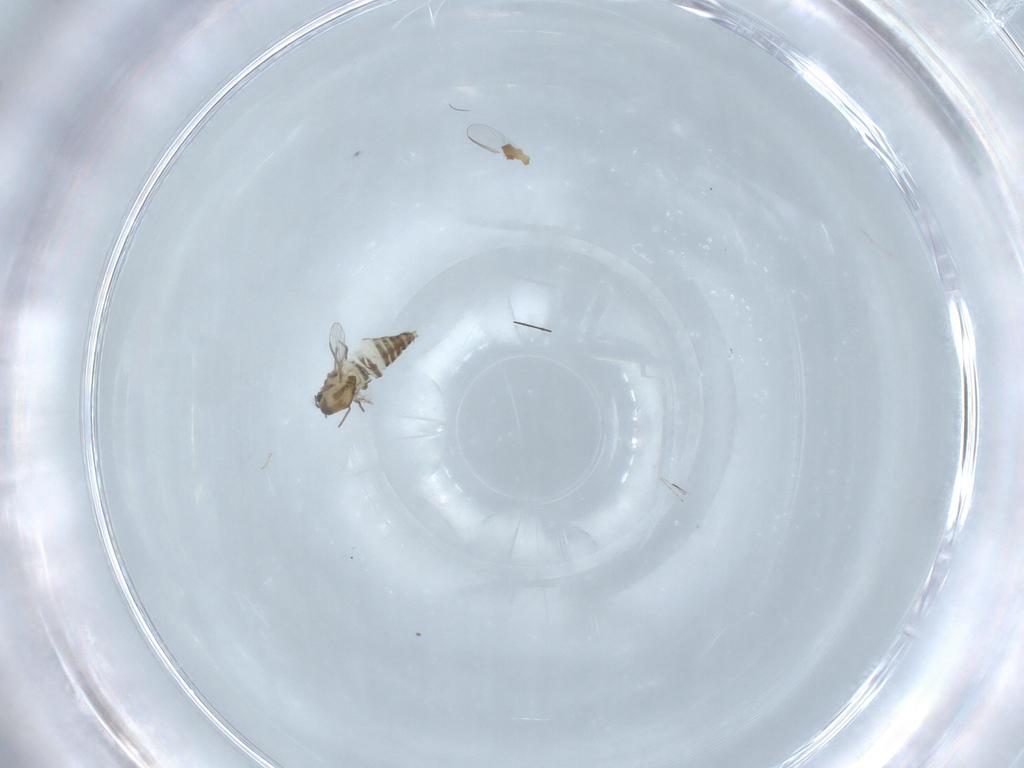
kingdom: Animalia
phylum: Arthropoda
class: Insecta
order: Diptera
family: Chironomidae
